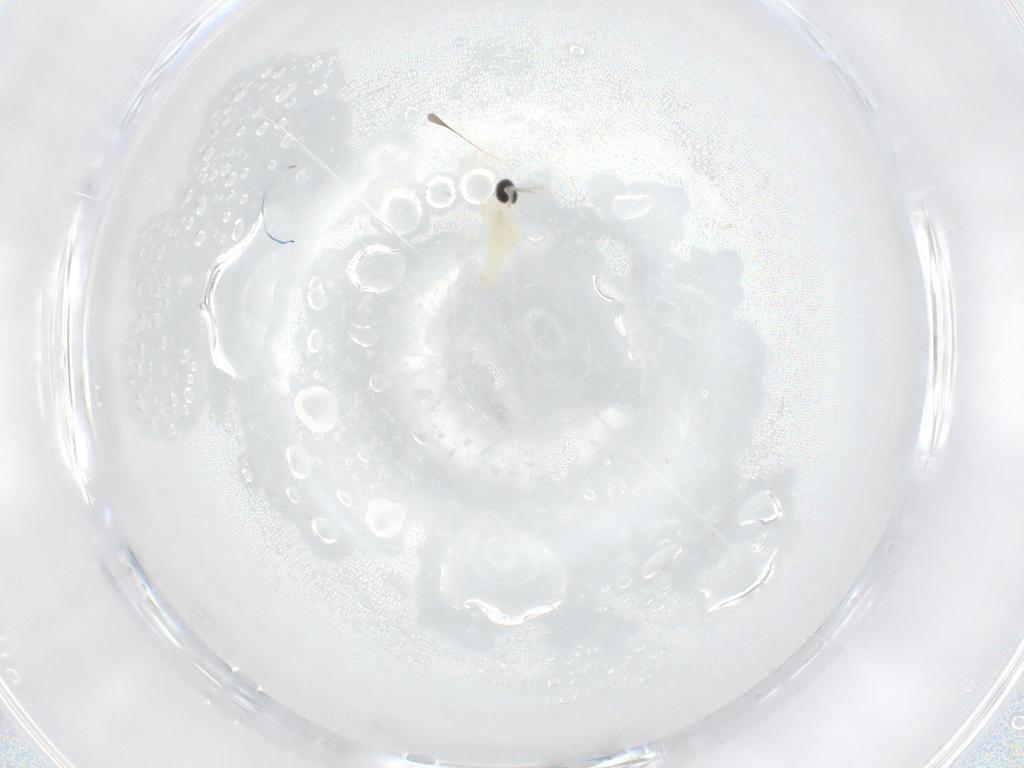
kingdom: Animalia
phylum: Arthropoda
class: Insecta
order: Diptera
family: Cecidomyiidae
